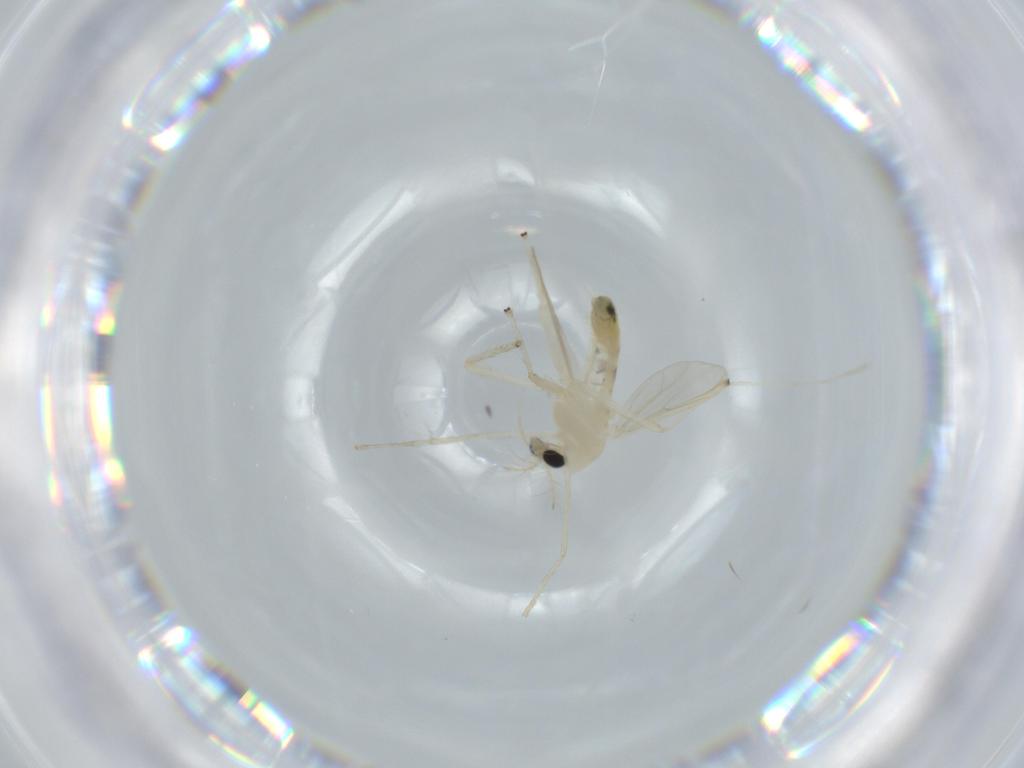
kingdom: Animalia
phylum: Arthropoda
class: Insecta
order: Diptera
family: Chironomidae
